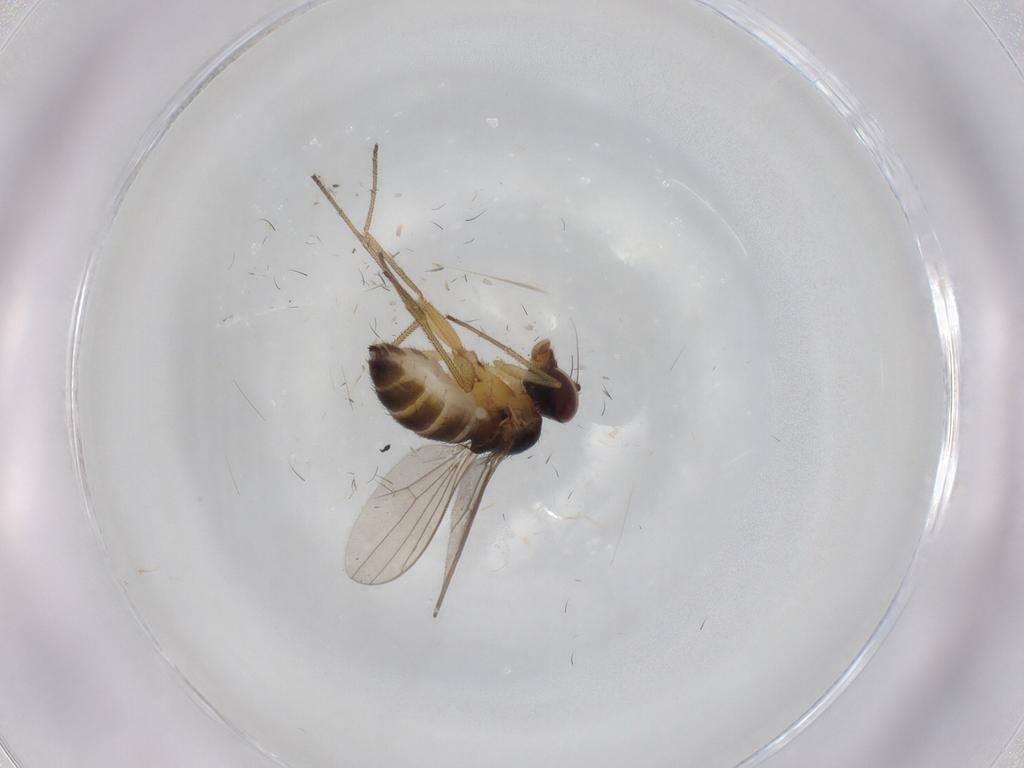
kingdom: Animalia
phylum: Arthropoda
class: Insecta
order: Diptera
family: Dolichopodidae
